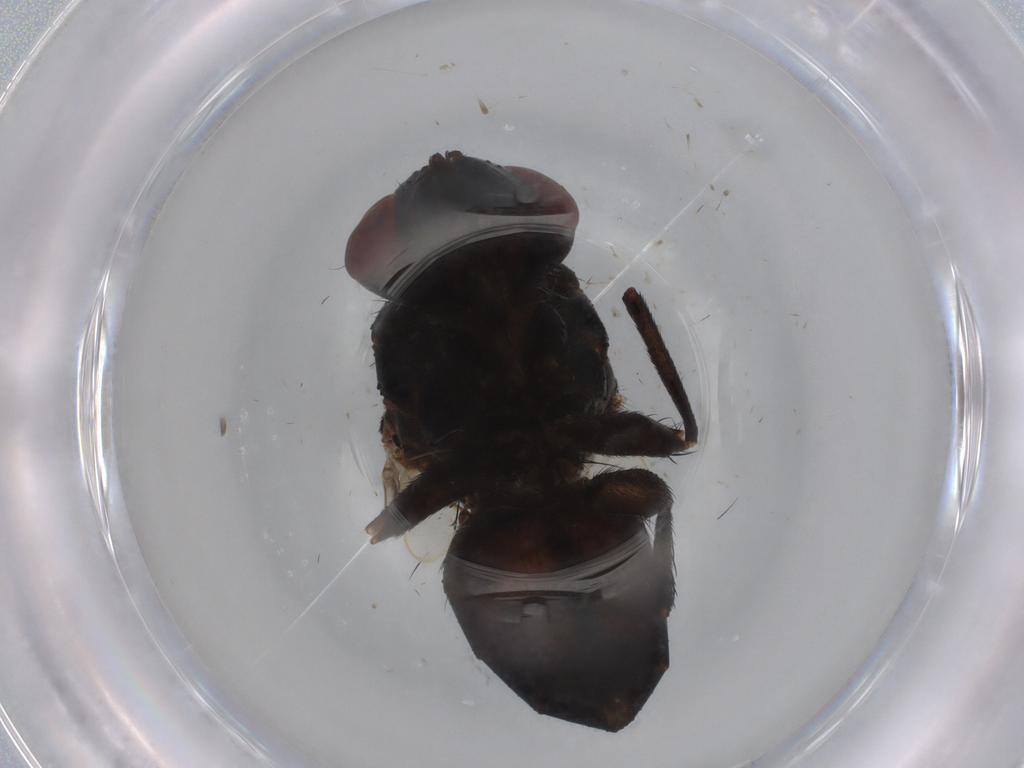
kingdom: Animalia
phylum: Arthropoda
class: Insecta
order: Diptera
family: Tachinidae
